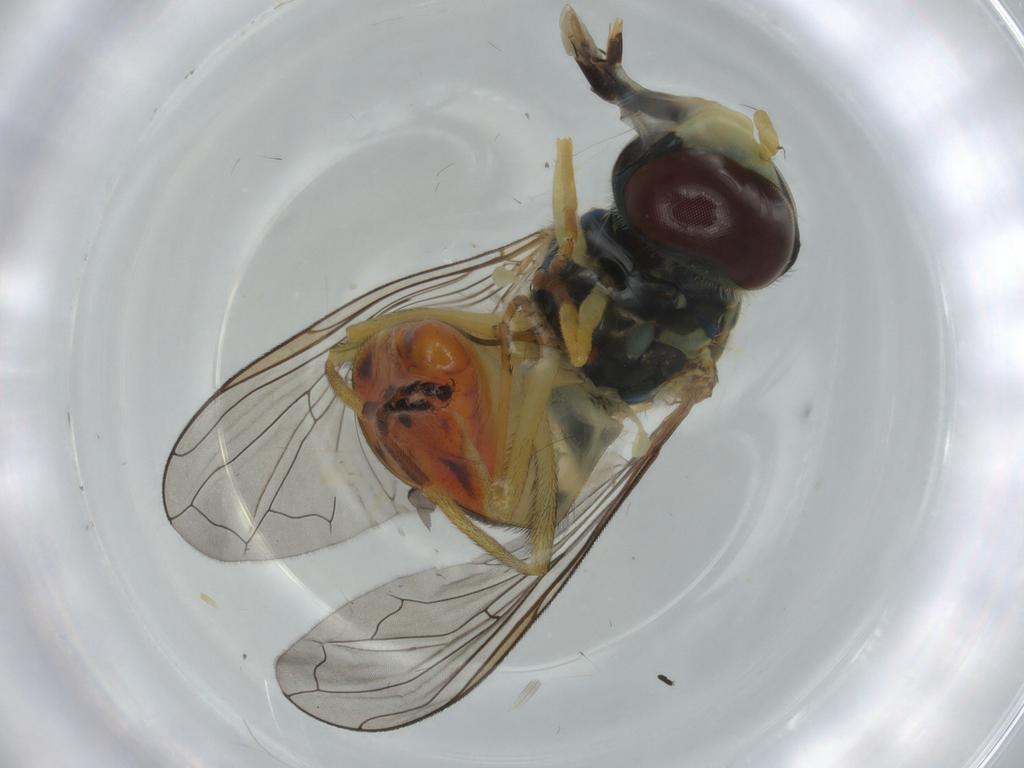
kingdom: Animalia
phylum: Arthropoda
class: Insecta
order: Diptera
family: Syrphidae
